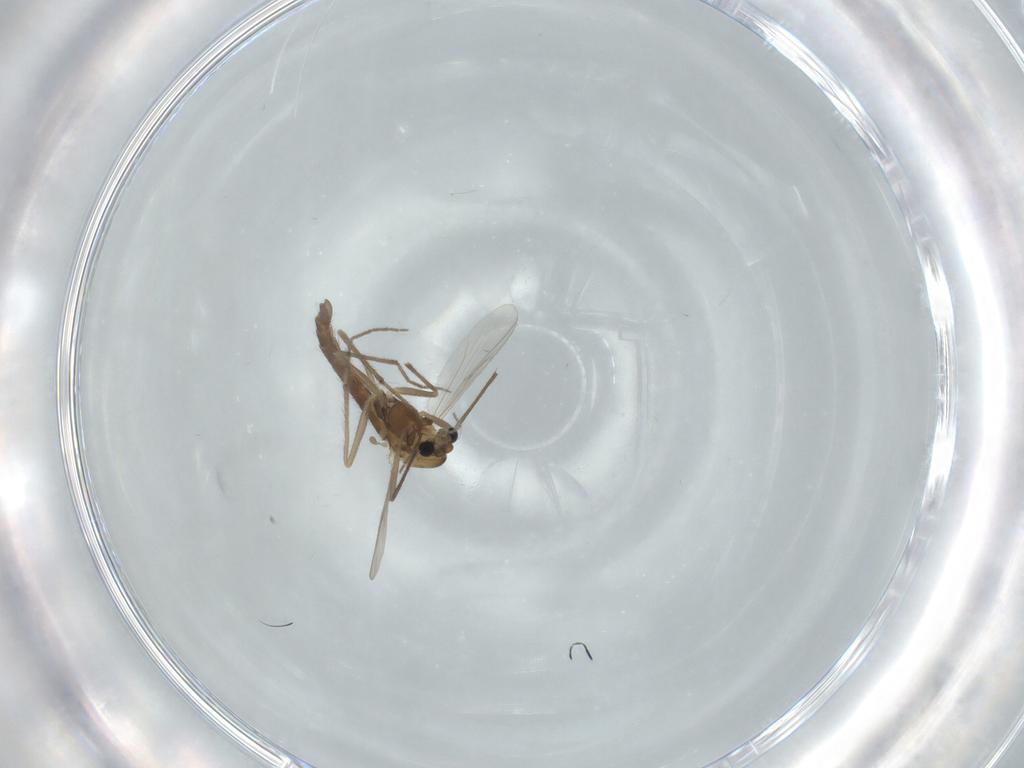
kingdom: Animalia
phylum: Arthropoda
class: Insecta
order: Diptera
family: Chironomidae
